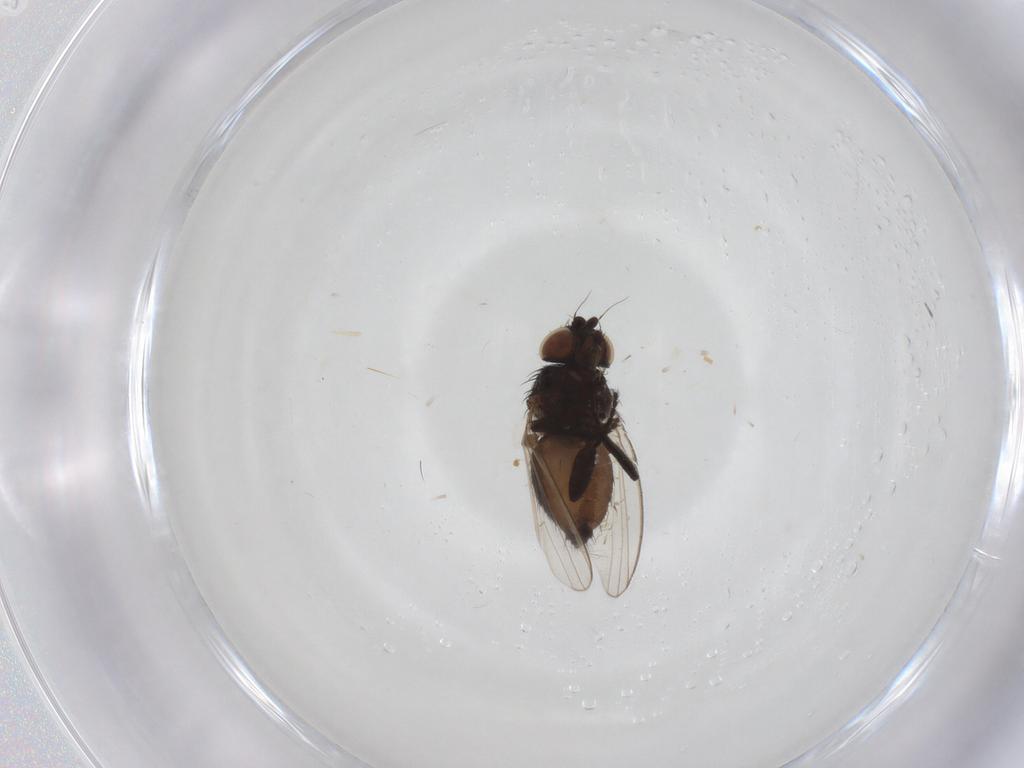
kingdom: Animalia
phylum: Arthropoda
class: Insecta
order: Diptera
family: Milichiidae
